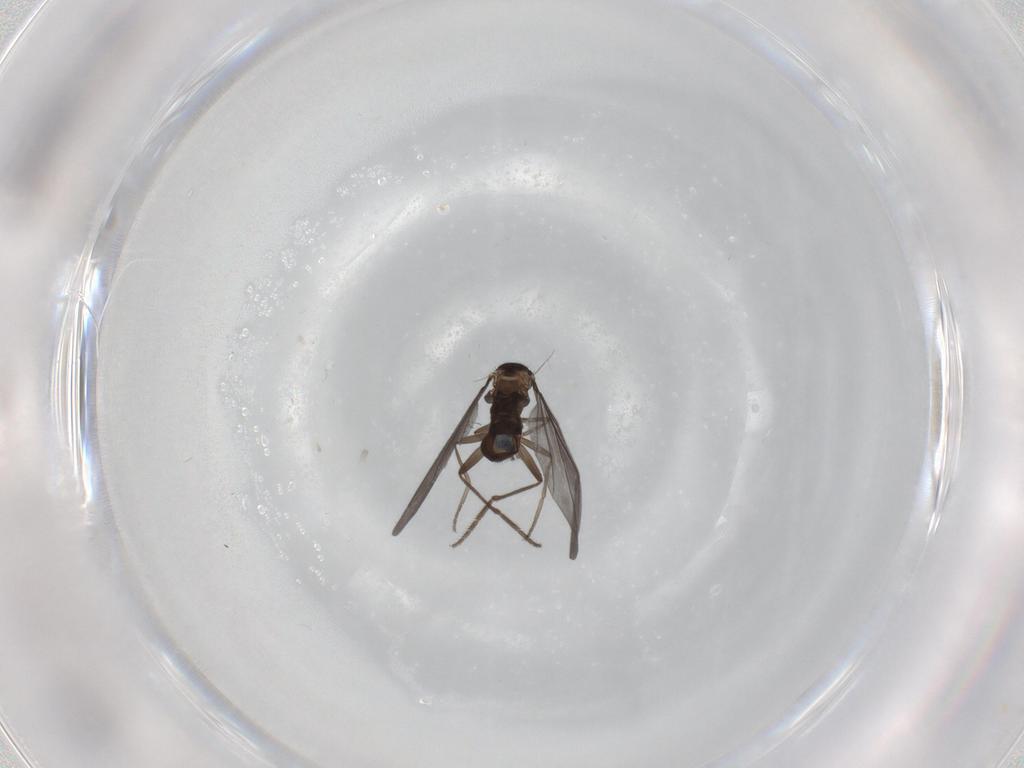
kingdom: Animalia
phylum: Arthropoda
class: Insecta
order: Diptera
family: Phoridae
